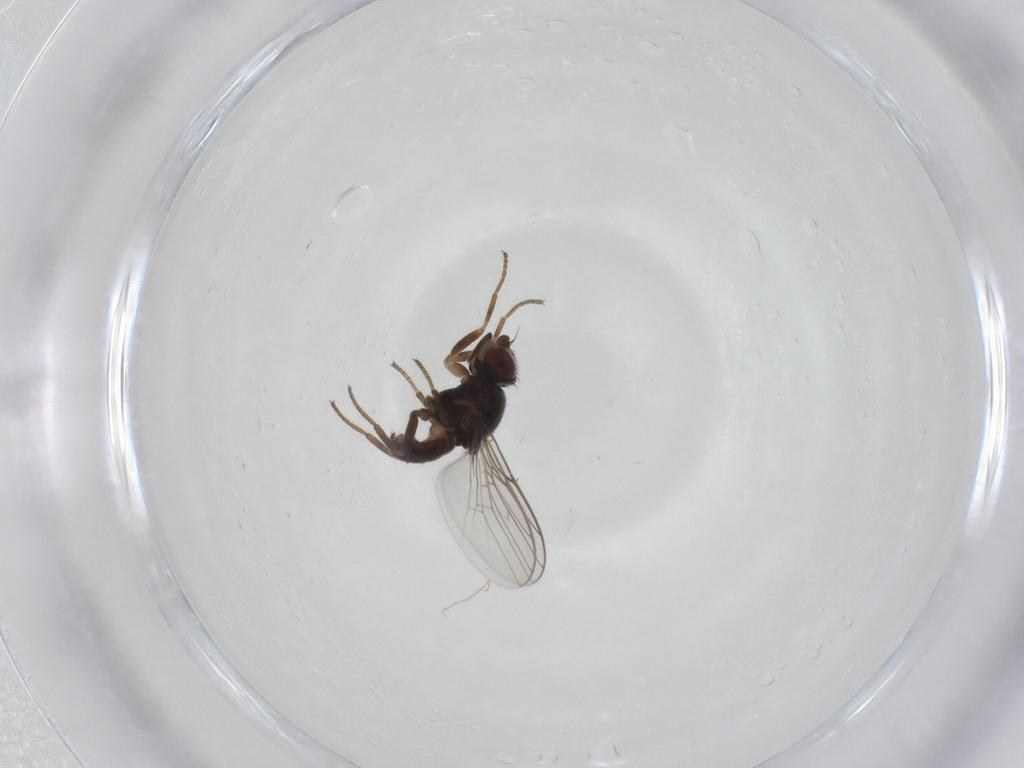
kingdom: Animalia
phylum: Arthropoda
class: Insecta
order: Diptera
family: Chloropidae
